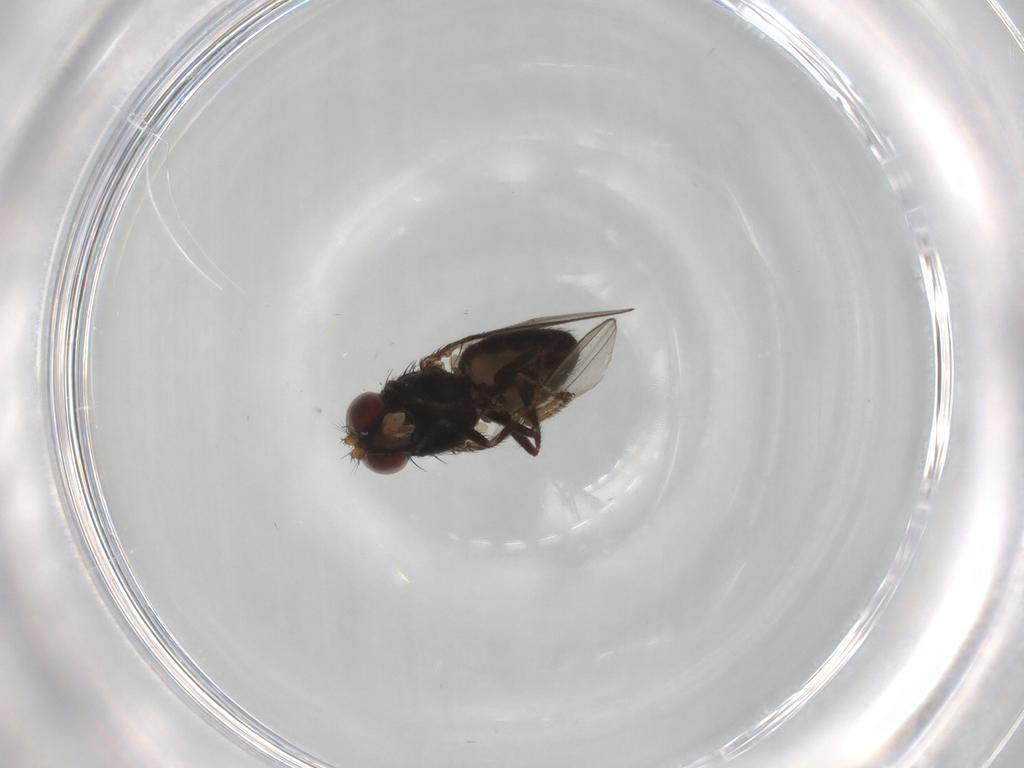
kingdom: Animalia
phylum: Arthropoda
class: Insecta
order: Diptera
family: Ephydridae
